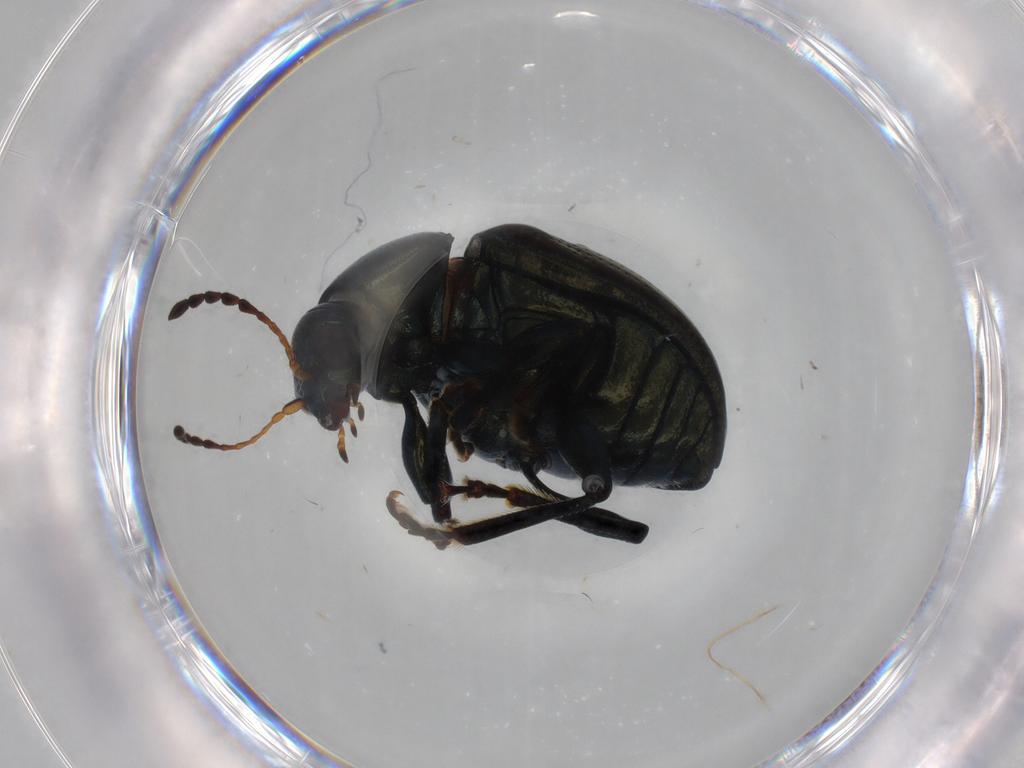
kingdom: Animalia
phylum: Arthropoda
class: Insecta
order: Coleoptera
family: Chrysomelidae
